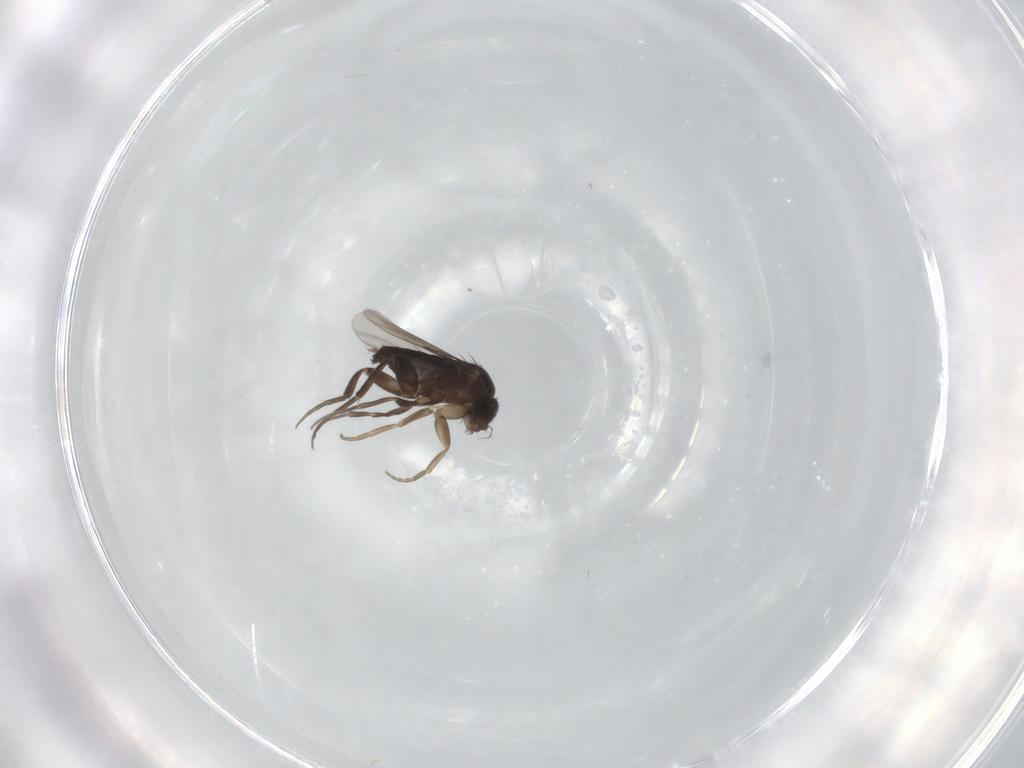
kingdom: Animalia
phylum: Arthropoda
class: Insecta
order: Diptera
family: Phoridae
